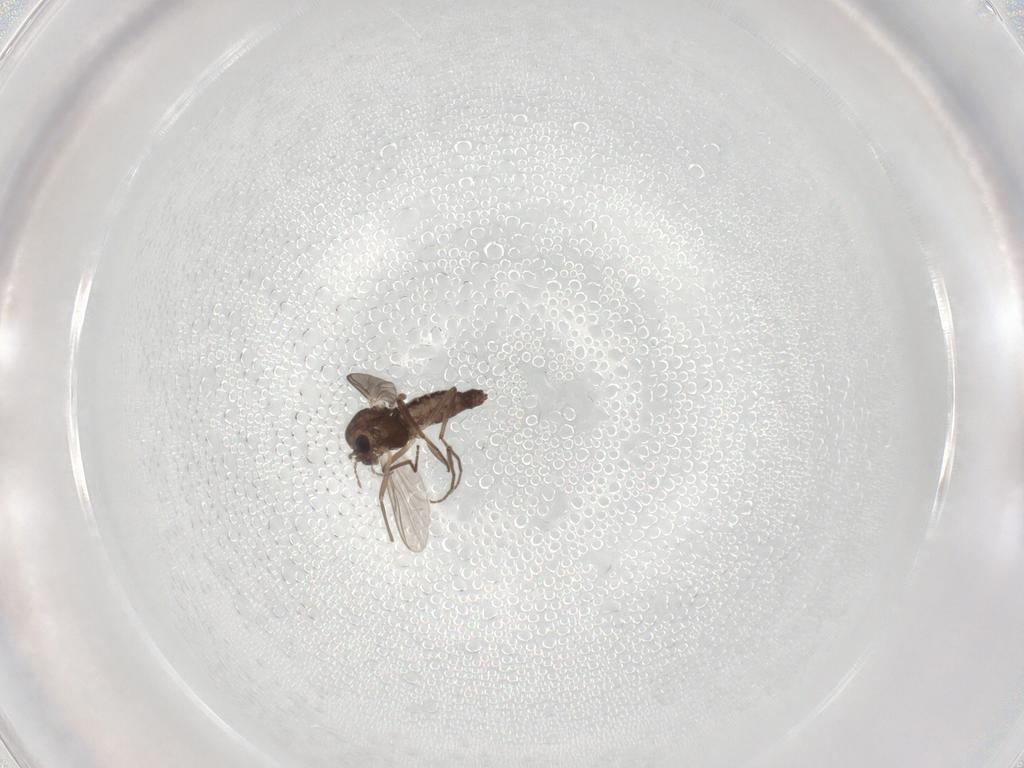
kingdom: Animalia
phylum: Arthropoda
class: Insecta
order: Diptera
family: Chironomidae
